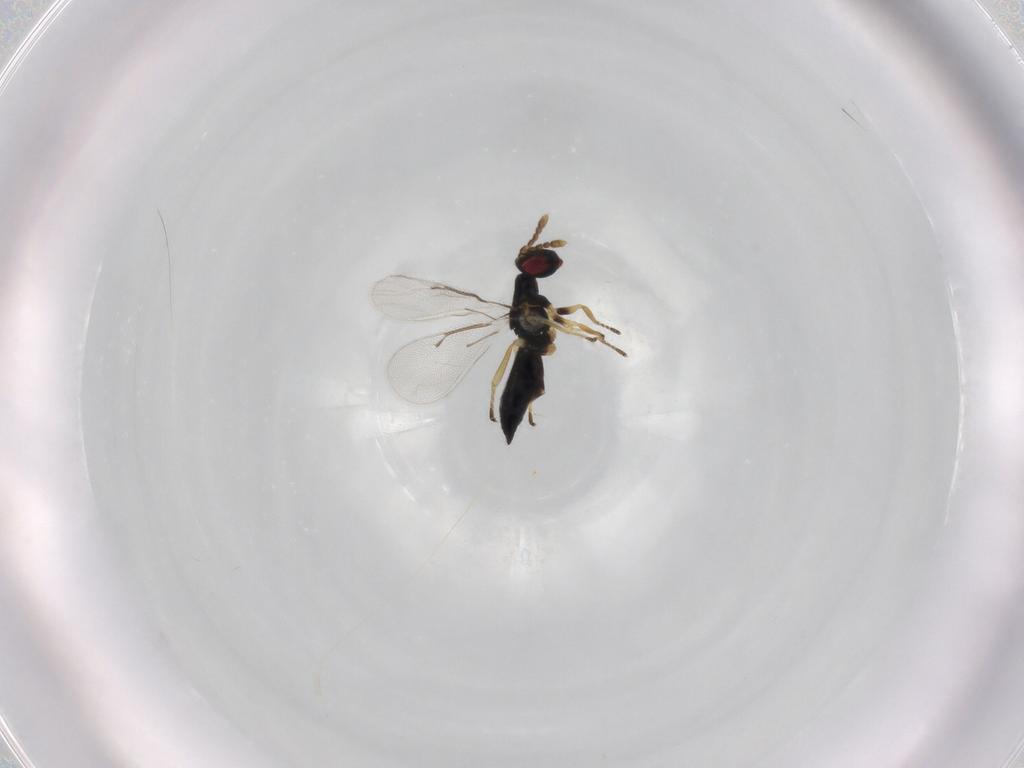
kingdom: Animalia
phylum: Arthropoda
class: Insecta
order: Hymenoptera
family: Eulophidae
